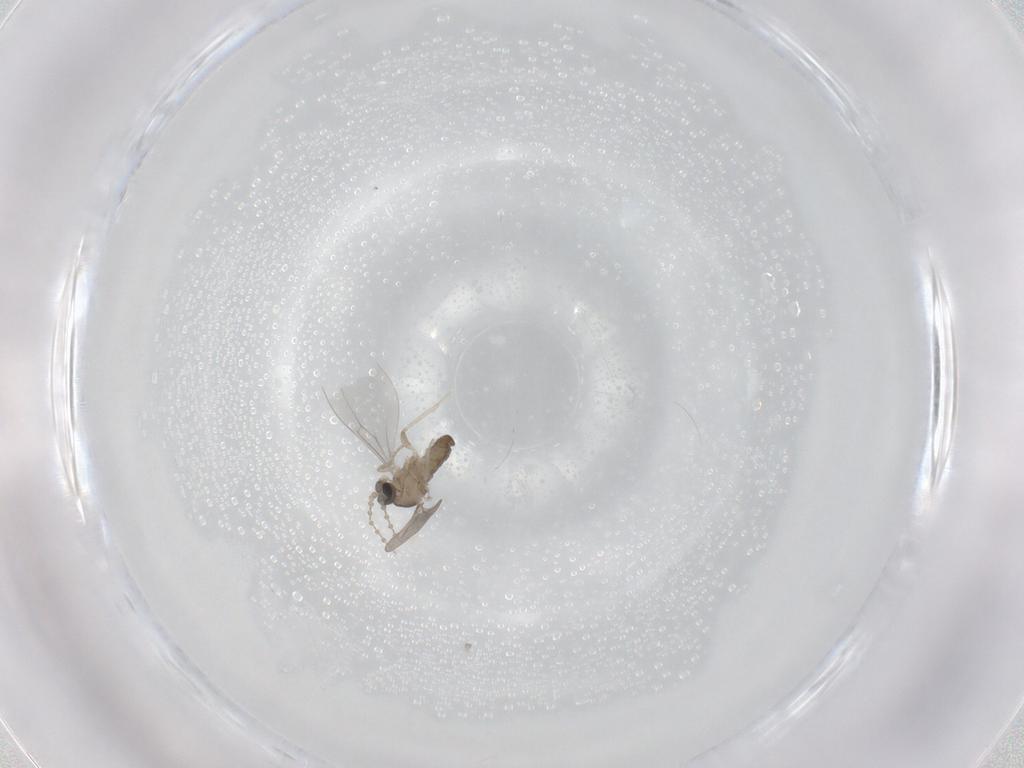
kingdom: Animalia
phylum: Arthropoda
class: Insecta
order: Diptera
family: Cecidomyiidae
